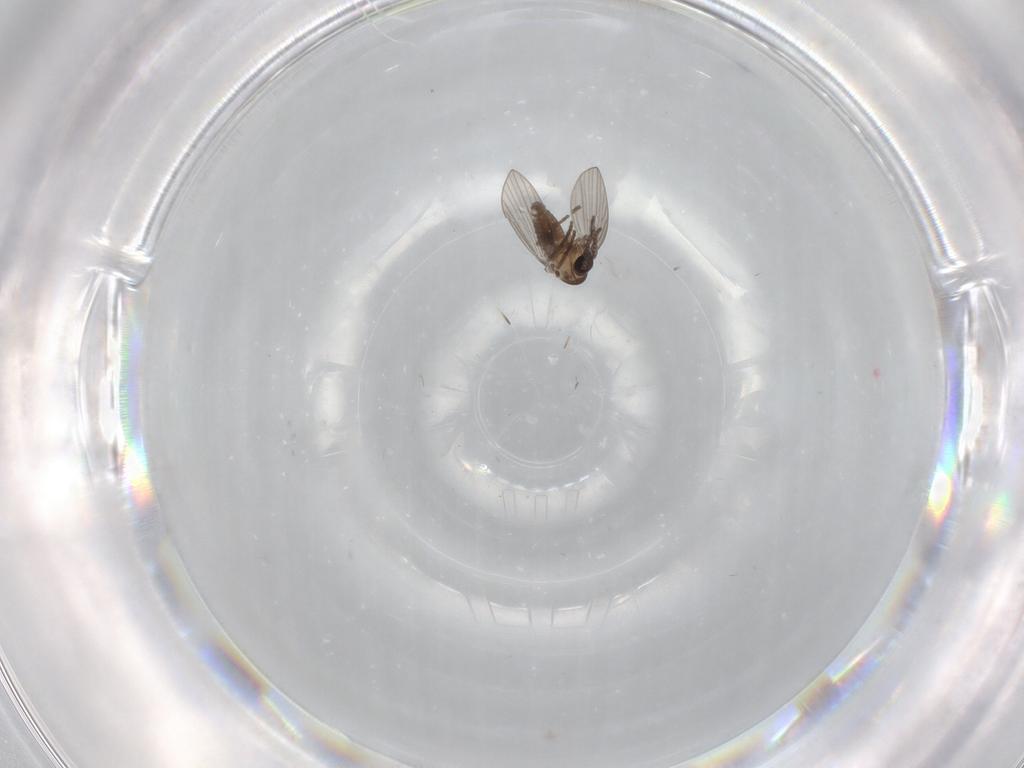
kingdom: Animalia
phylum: Arthropoda
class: Insecta
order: Diptera
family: Psychodidae
